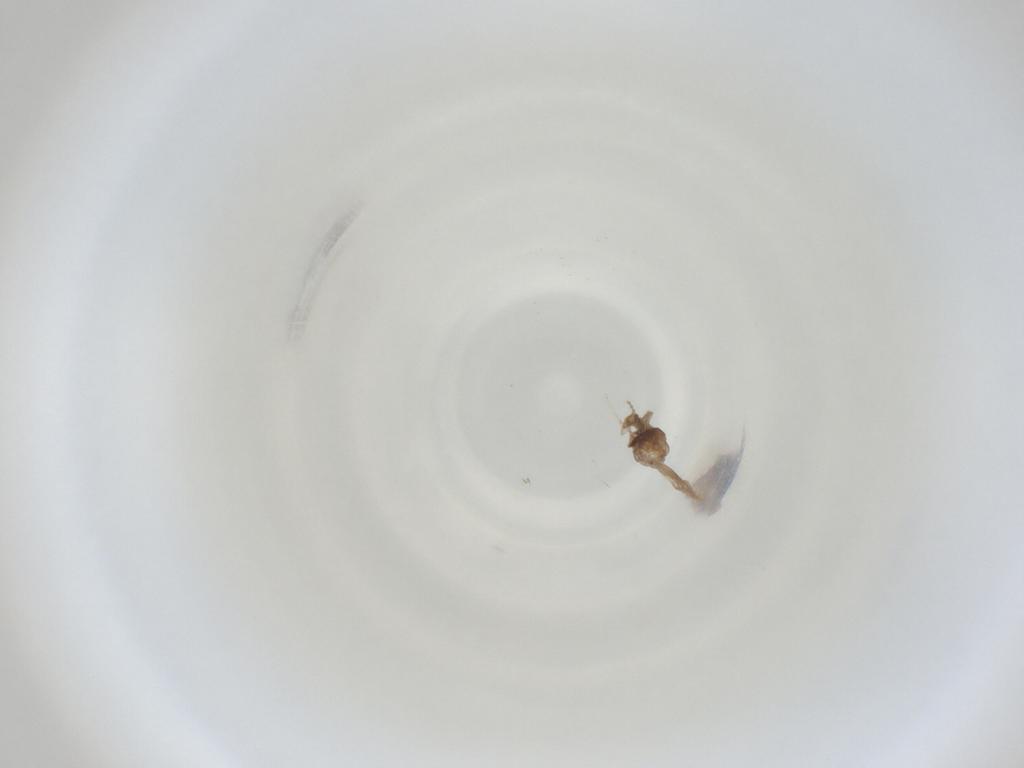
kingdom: Animalia
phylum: Arthropoda
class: Insecta
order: Diptera
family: Cecidomyiidae
